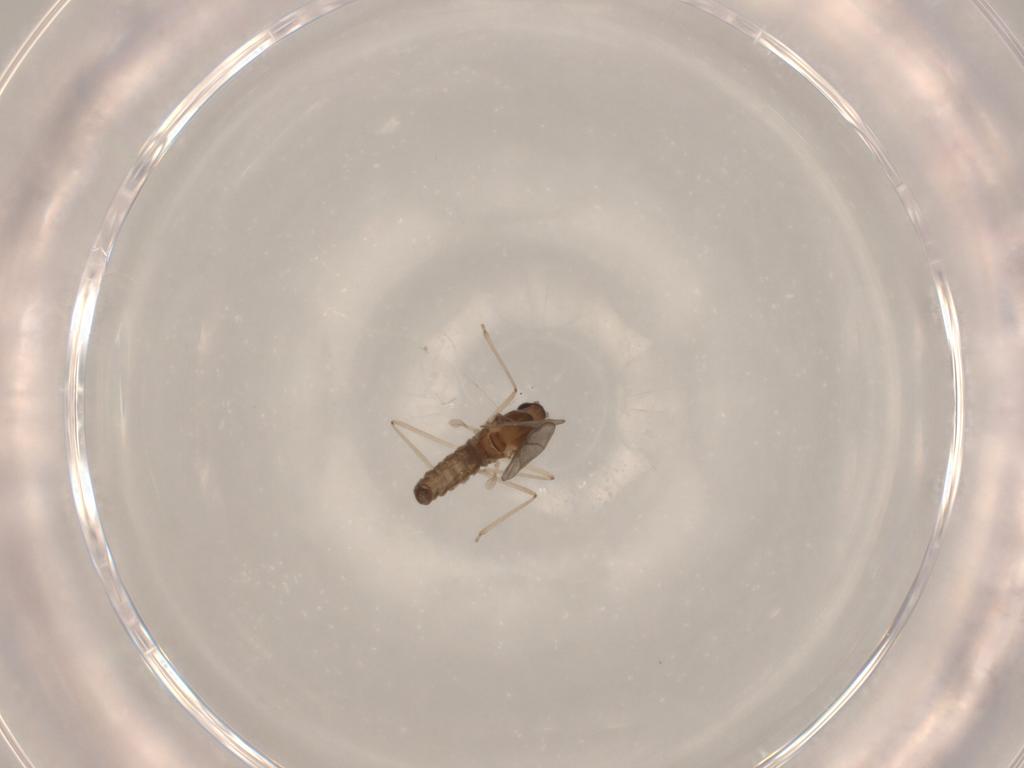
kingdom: Animalia
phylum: Arthropoda
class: Insecta
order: Diptera
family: Cecidomyiidae
